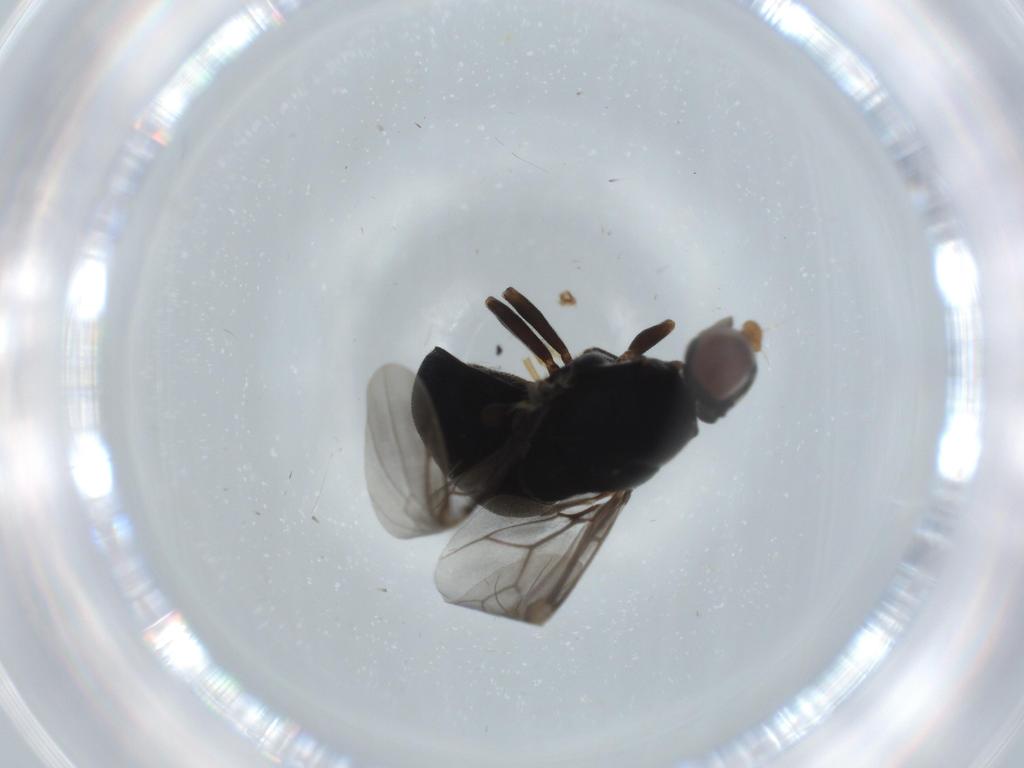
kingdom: Animalia
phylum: Arthropoda
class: Insecta
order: Diptera
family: Stratiomyidae
